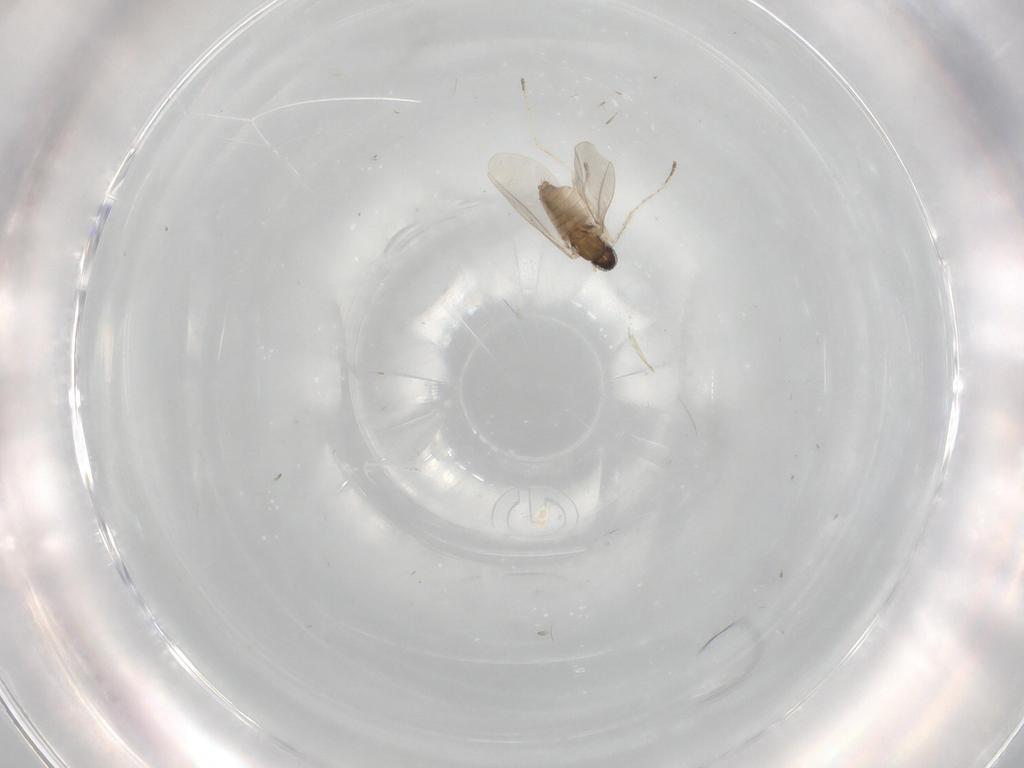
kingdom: Animalia
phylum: Arthropoda
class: Insecta
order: Diptera
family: Cecidomyiidae
